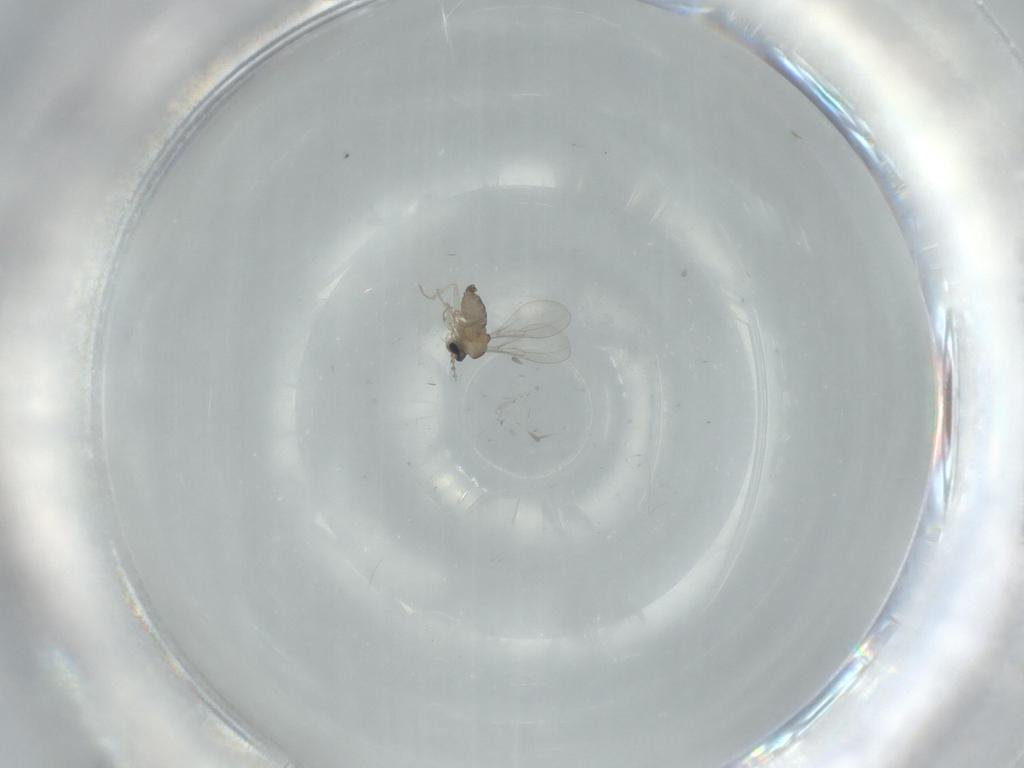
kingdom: Animalia
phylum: Arthropoda
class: Insecta
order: Diptera
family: Cecidomyiidae
